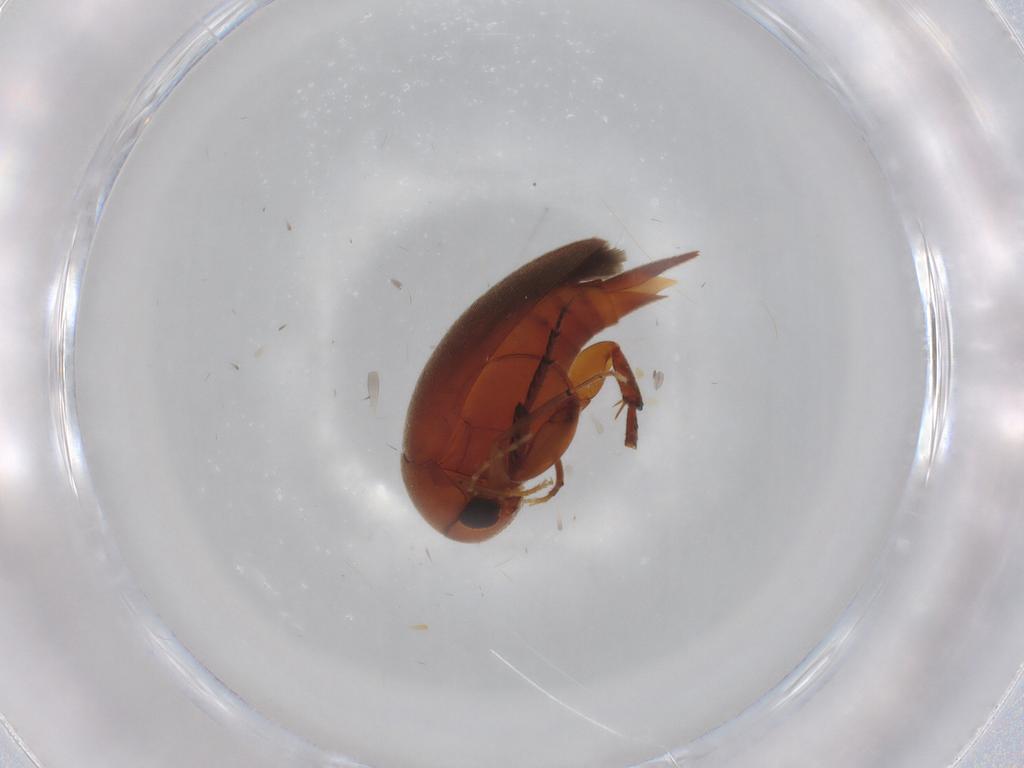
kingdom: Animalia
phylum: Arthropoda
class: Insecta
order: Coleoptera
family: Mordellidae
